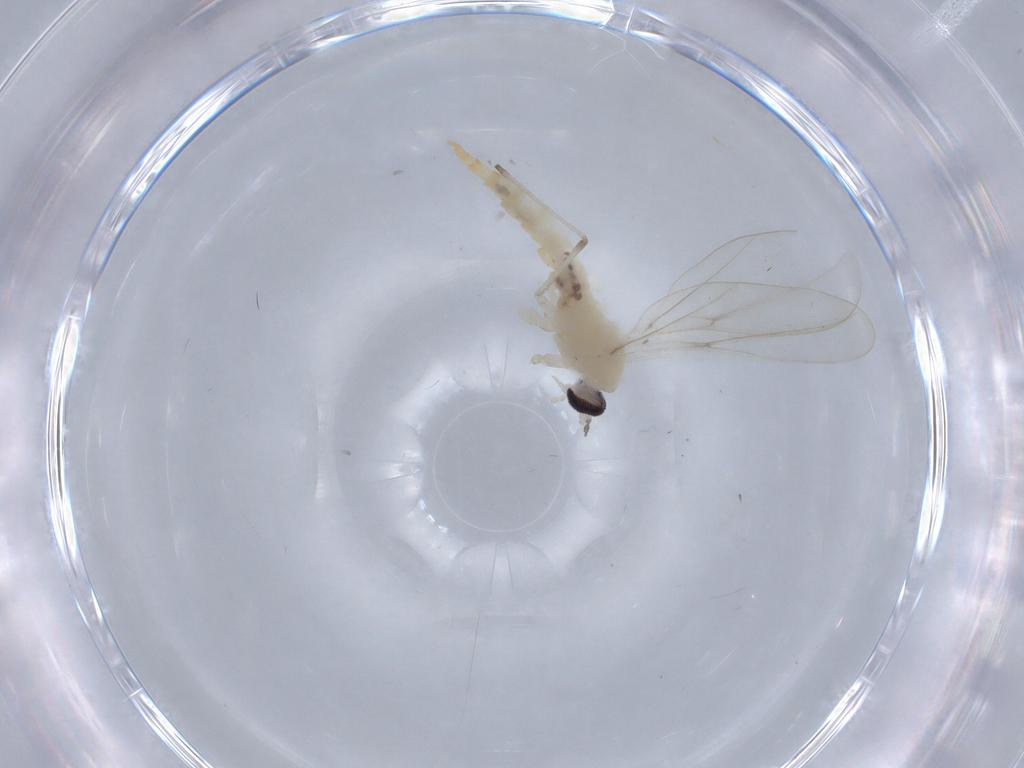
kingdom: Animalia
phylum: Arthropoda
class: Insecta
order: Diptera
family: Cecidomyiidae
